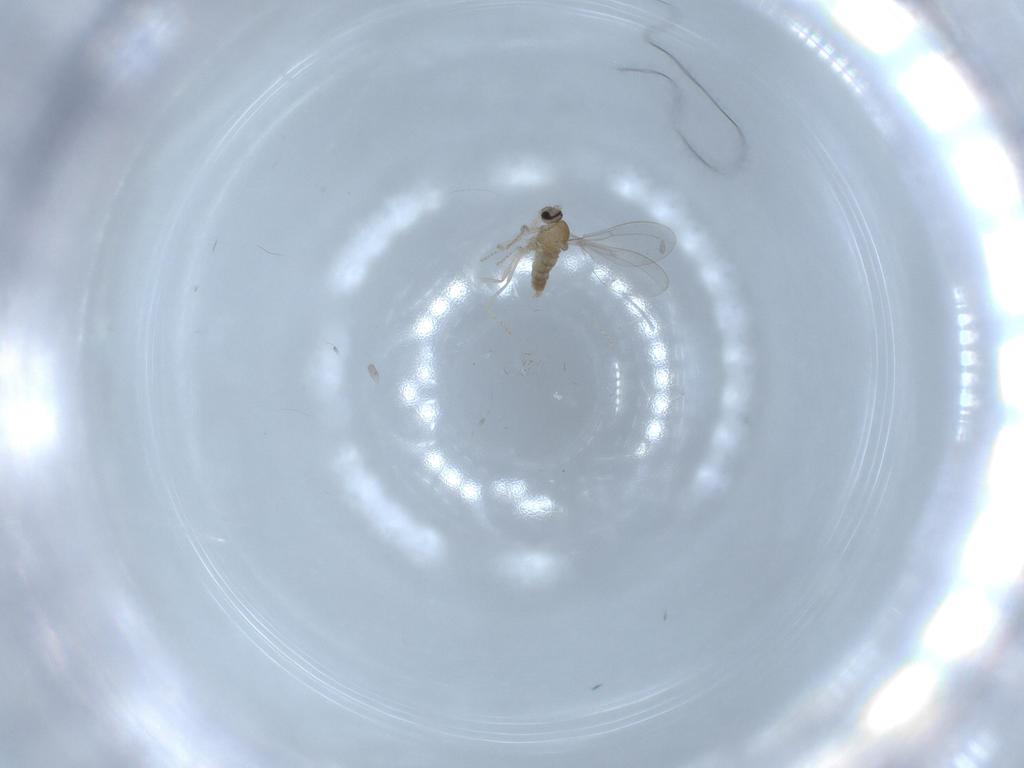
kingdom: Animalia
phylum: Arthropoda
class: Insecta
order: Diptera
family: Cecidomyiidae
